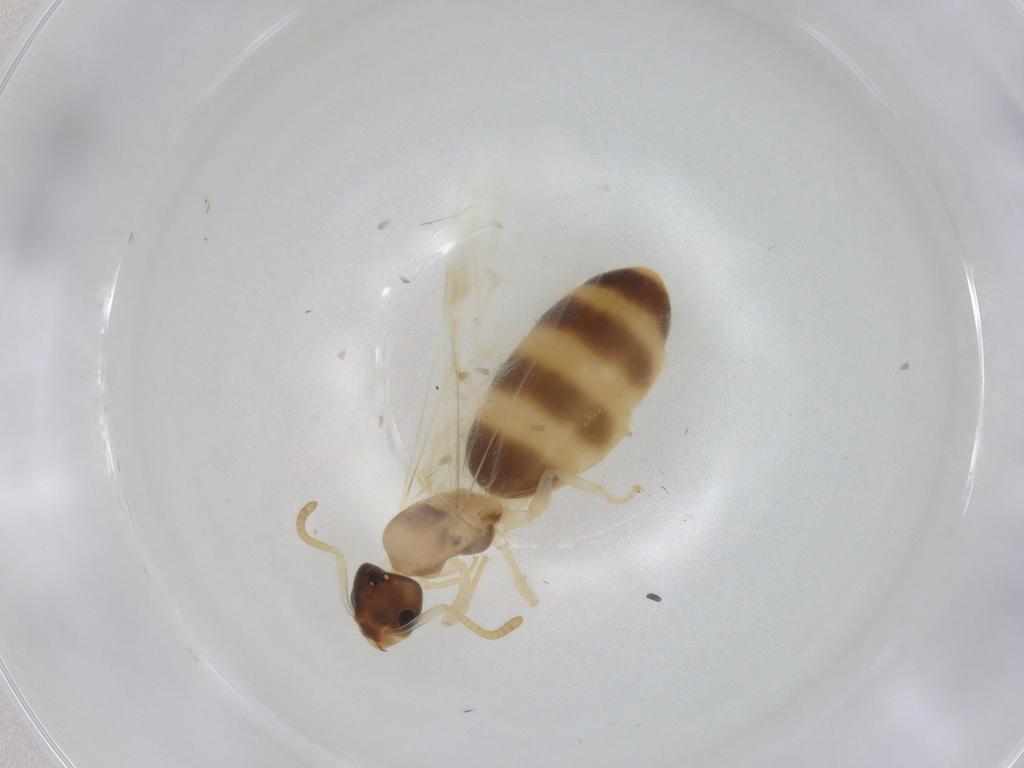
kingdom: Animalia
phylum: Arthropoda
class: Insecta
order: Hymenoptera
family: Formicidae
